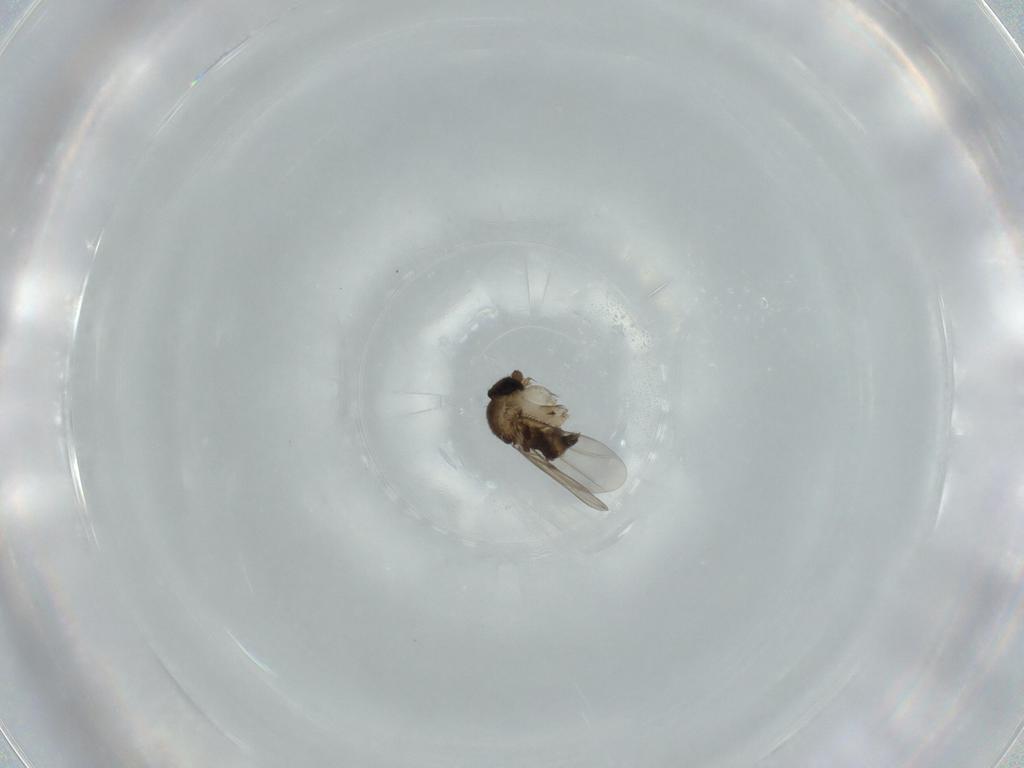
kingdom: Animalia
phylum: Arthropoda
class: Insecta
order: Diptera
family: Phoridae
